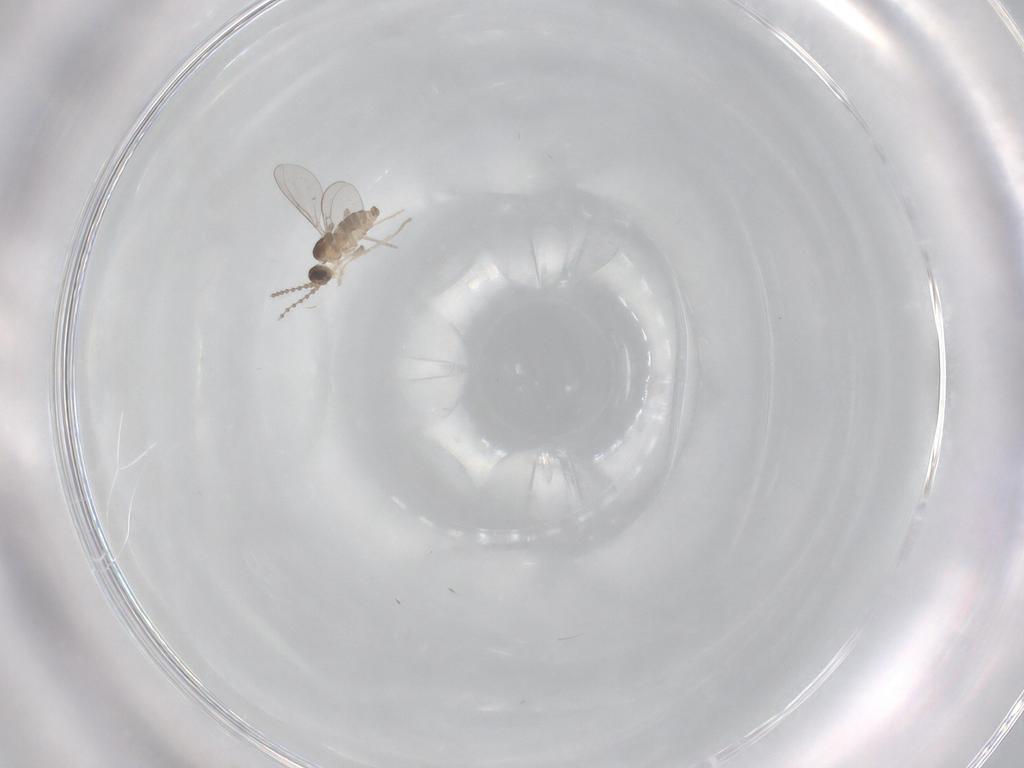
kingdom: Animalia
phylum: Arthropoda
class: Insecta
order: Diptera
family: Cecidomyiidae
